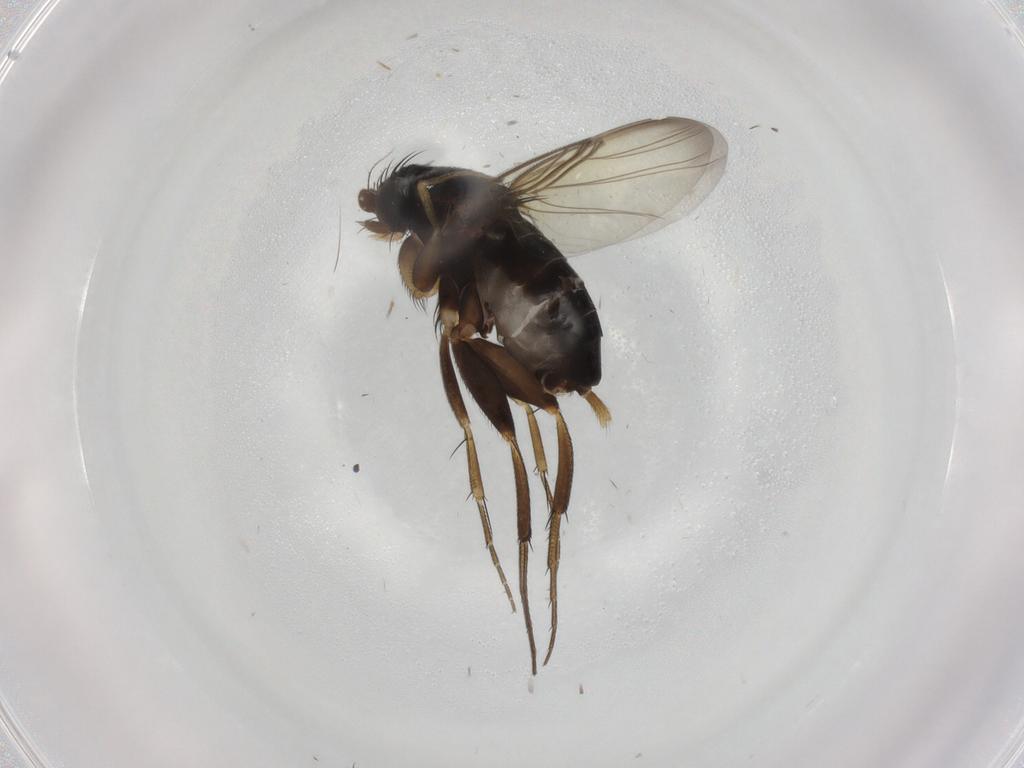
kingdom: Animalia
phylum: Arthropoda
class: Insecta
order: Diptera
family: Phoridae
